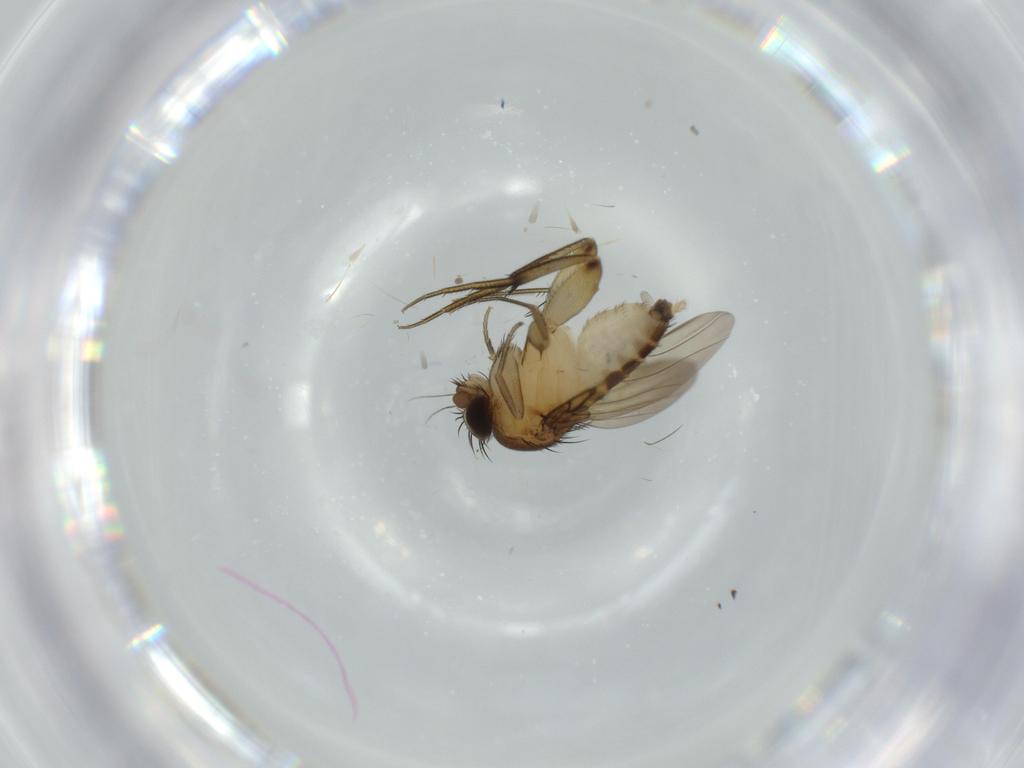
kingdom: Animalia
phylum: Arthropoda
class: Insecta
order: Diptera
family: Phoridae
